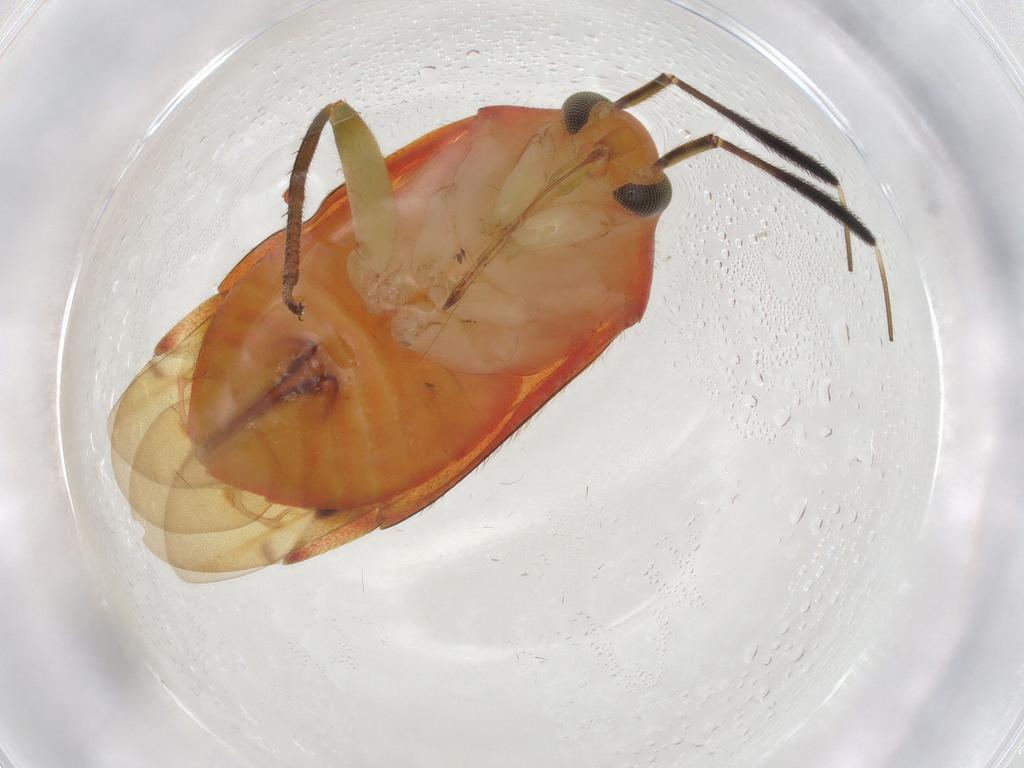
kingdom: Animalia
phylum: Arthropoda
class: Insecta
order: Hemiptera
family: Miridae
